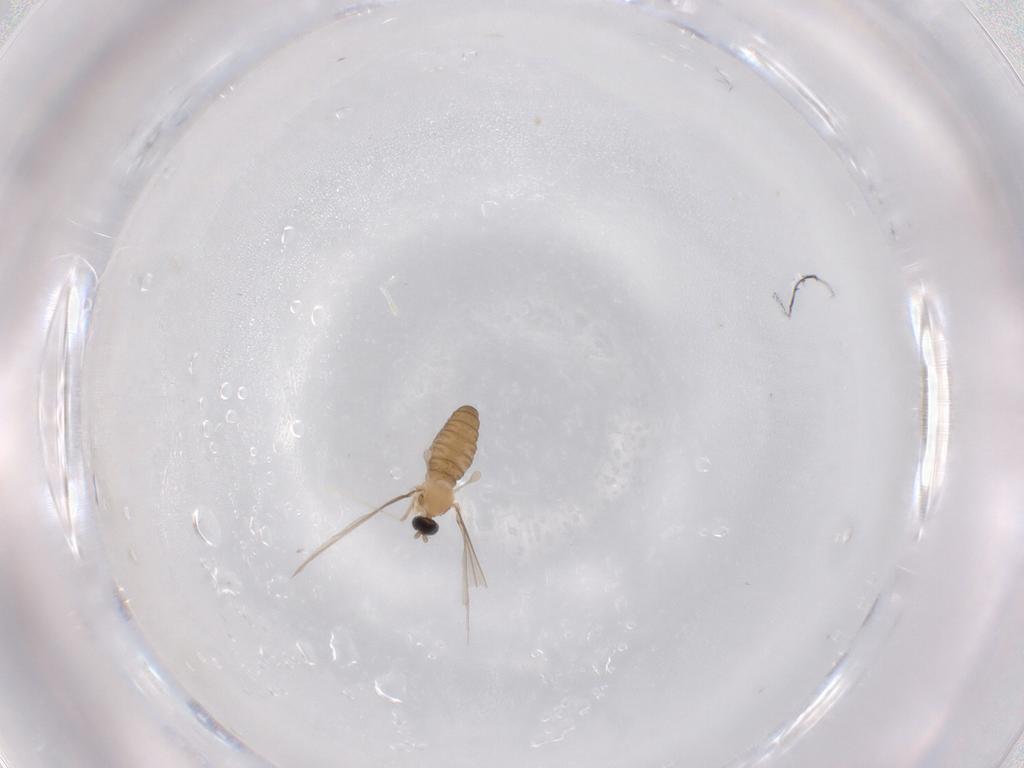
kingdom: Animalia
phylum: Arthropoda
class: Insecta
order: Diptera
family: Cecidomyiidae
